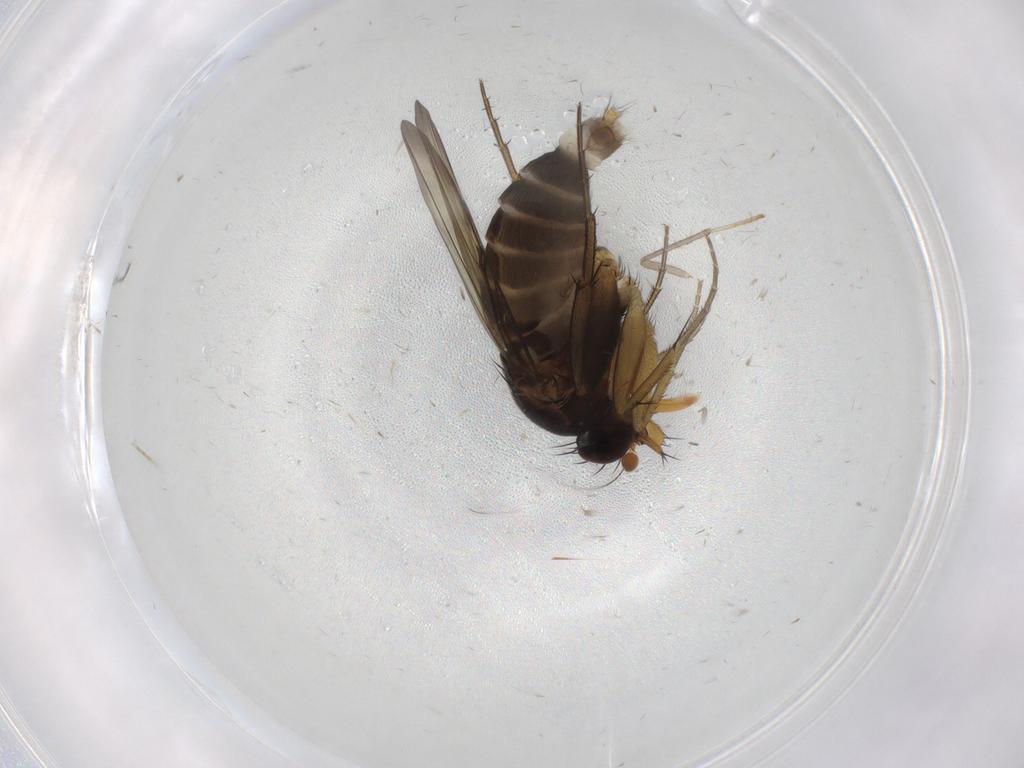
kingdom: Animalia
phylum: Arthropoda
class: Insecta
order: Diptera
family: Phoridae
